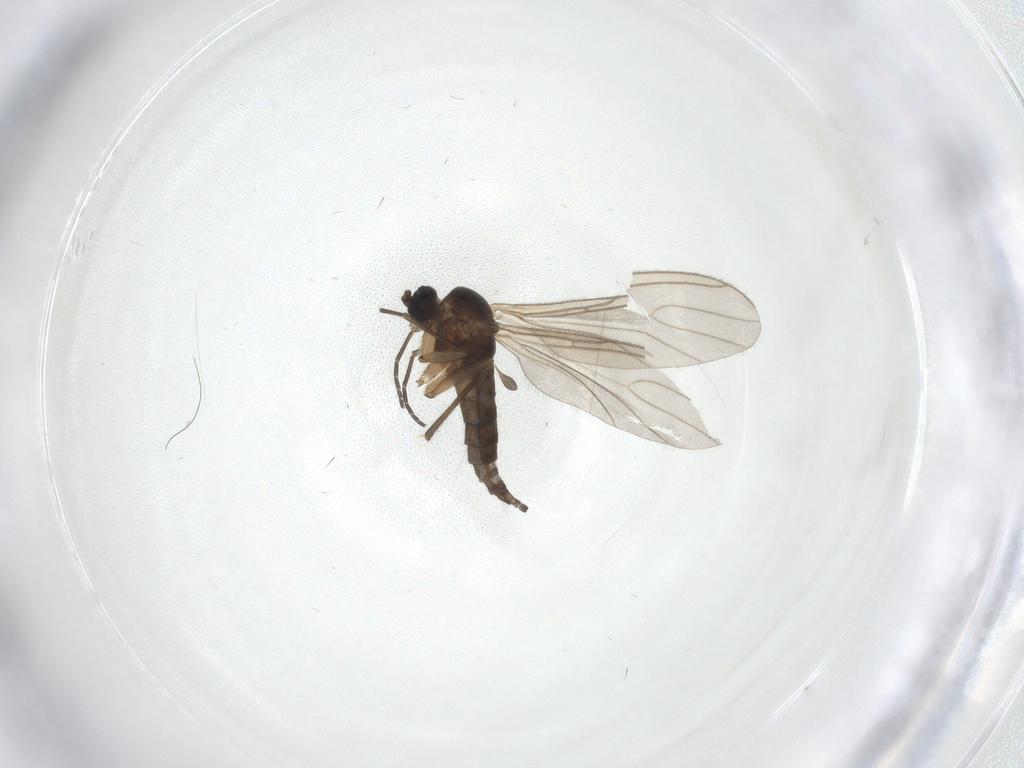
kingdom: Animalia
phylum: Arthropoda
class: Insecta
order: Diptera
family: Sciaridae
